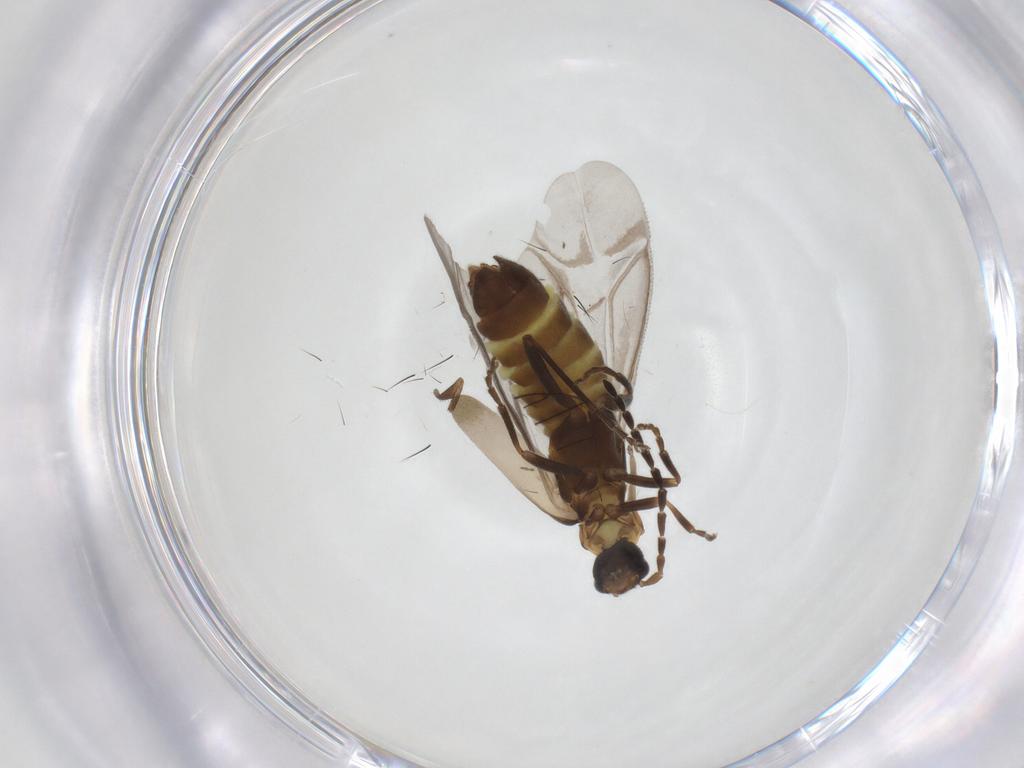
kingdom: Animalia
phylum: Arthropoda
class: Insecta
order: Coleoptera
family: Cantharidae
